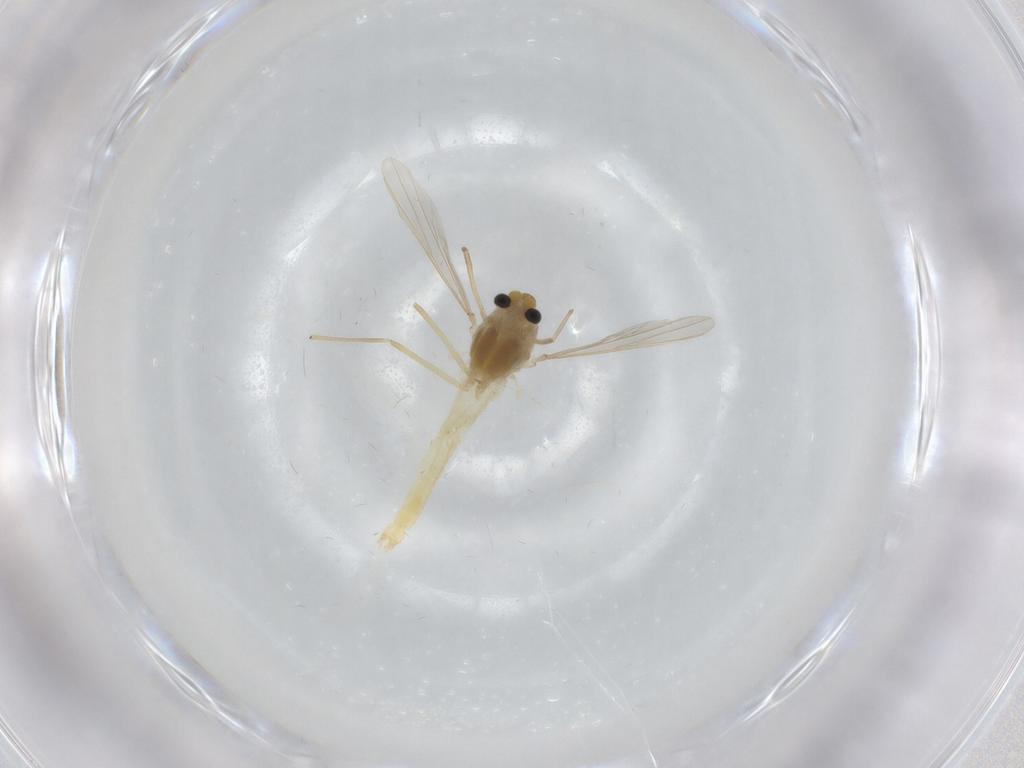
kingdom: Animalia
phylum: Arthropoda
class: Insecta
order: Diptera
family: Chironomidae
